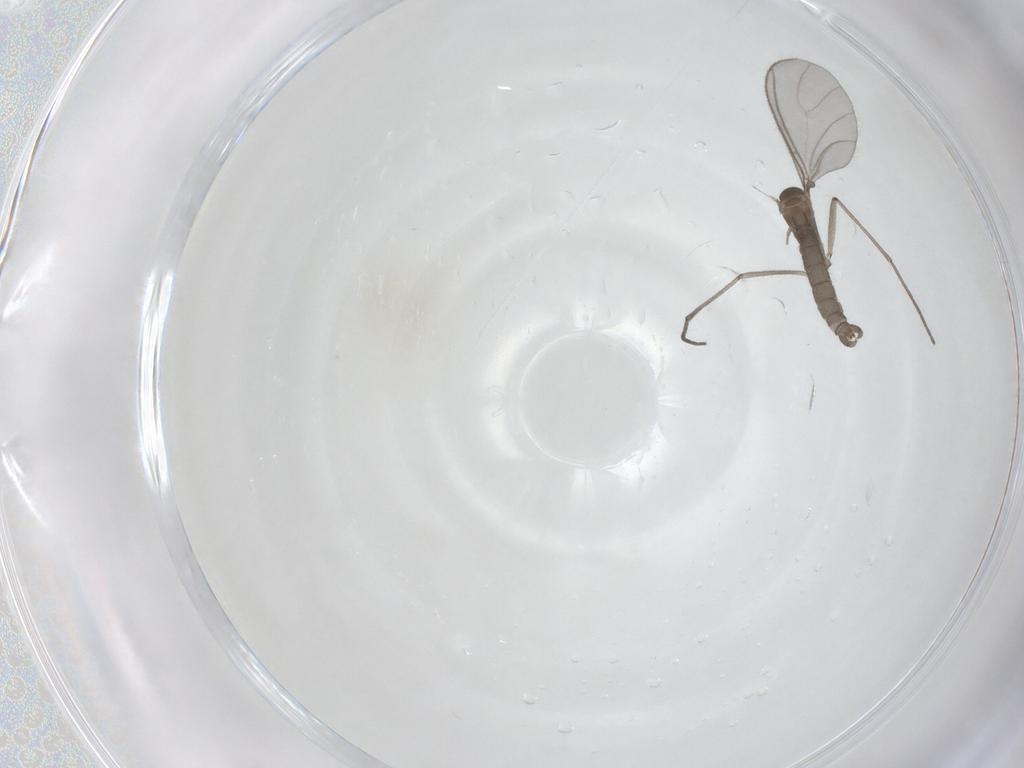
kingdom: Animalia
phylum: Arthropoda
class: Insecta
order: Diptera
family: Sciaridae
